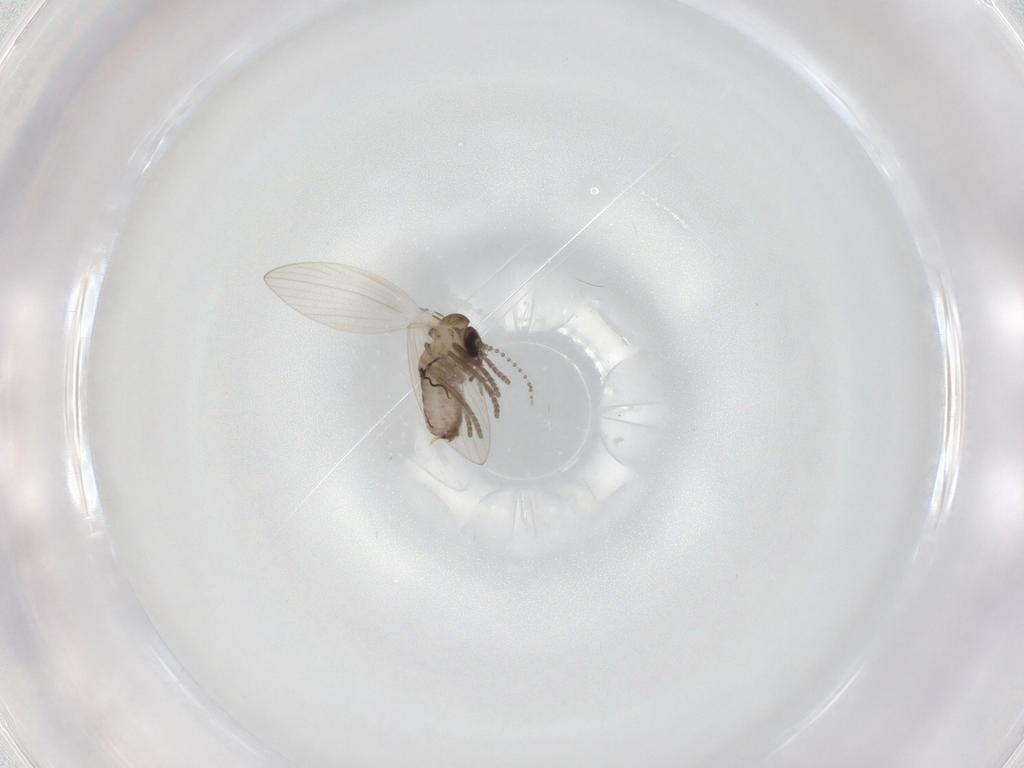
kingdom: Animalia
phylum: Arthropoda
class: Insecta
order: Diptera
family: Psychodidae
